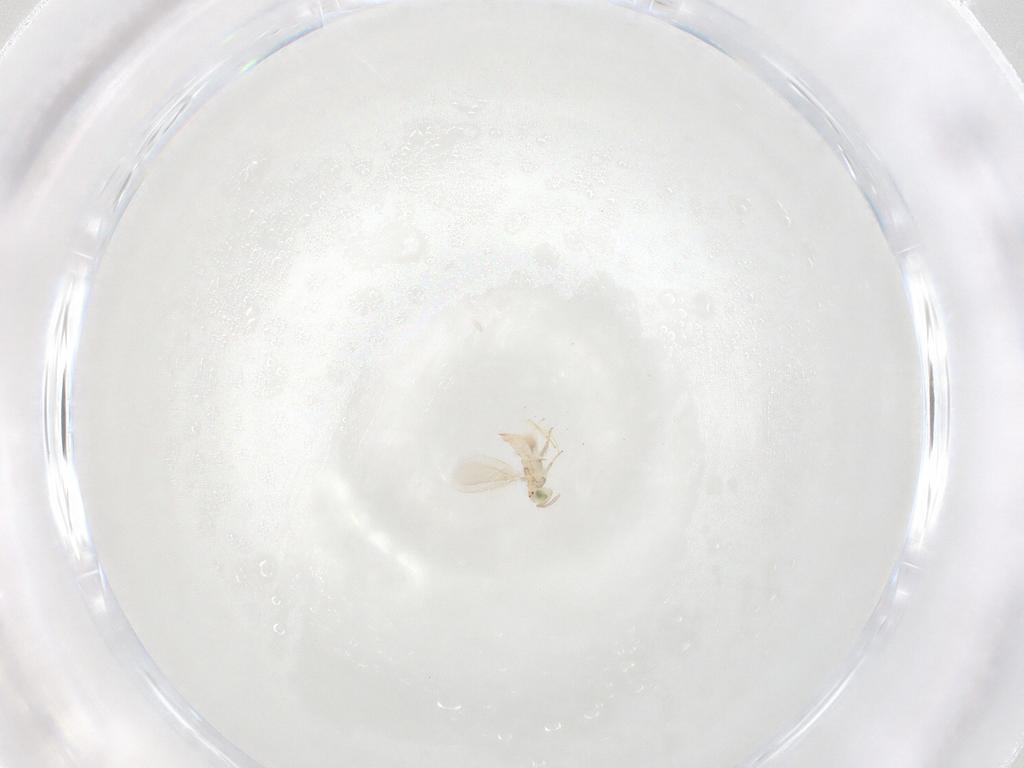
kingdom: Animalia
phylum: Arthropoda
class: Insecta
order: Hymenoptera
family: Aphelinidae
